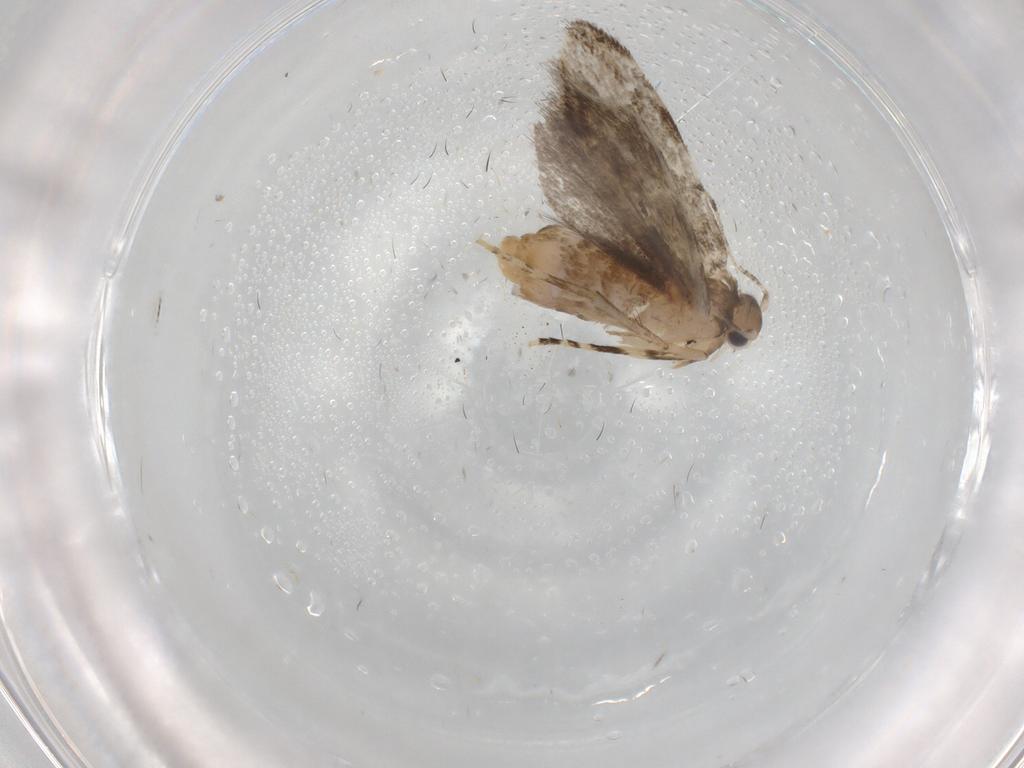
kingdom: Animalia
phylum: Arthropoda
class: Insecta
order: Lepidoptera
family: Tineidae
